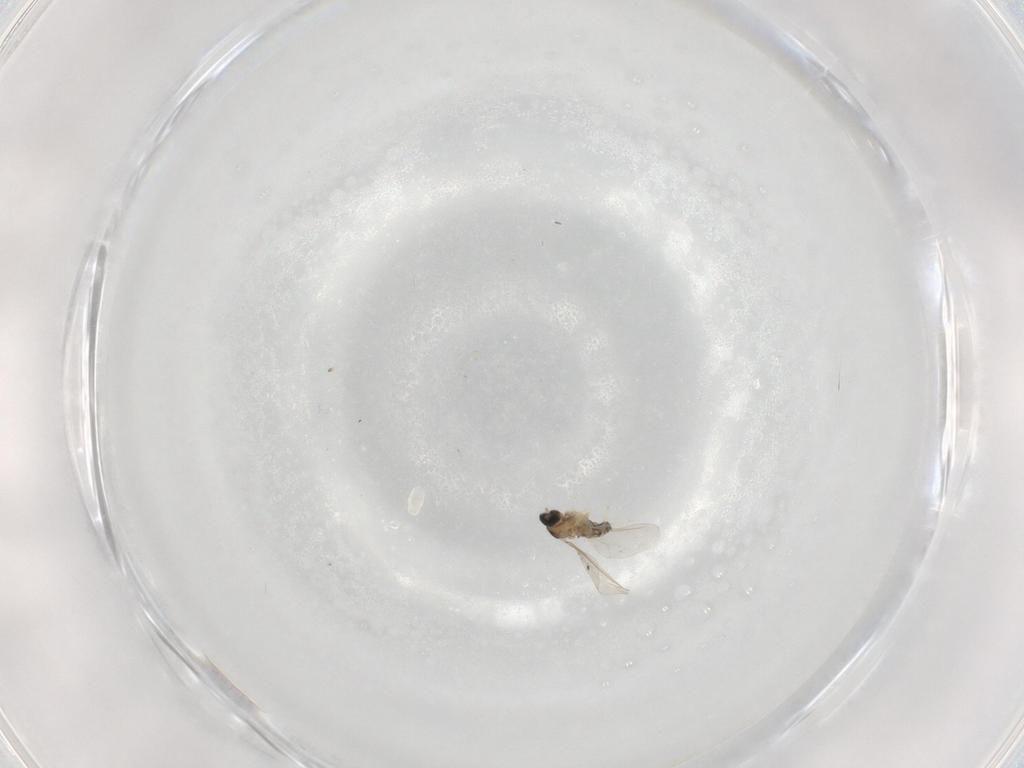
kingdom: Animalia
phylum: Arthropoda
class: Insecta
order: Diptera
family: Cecidomyiidae
